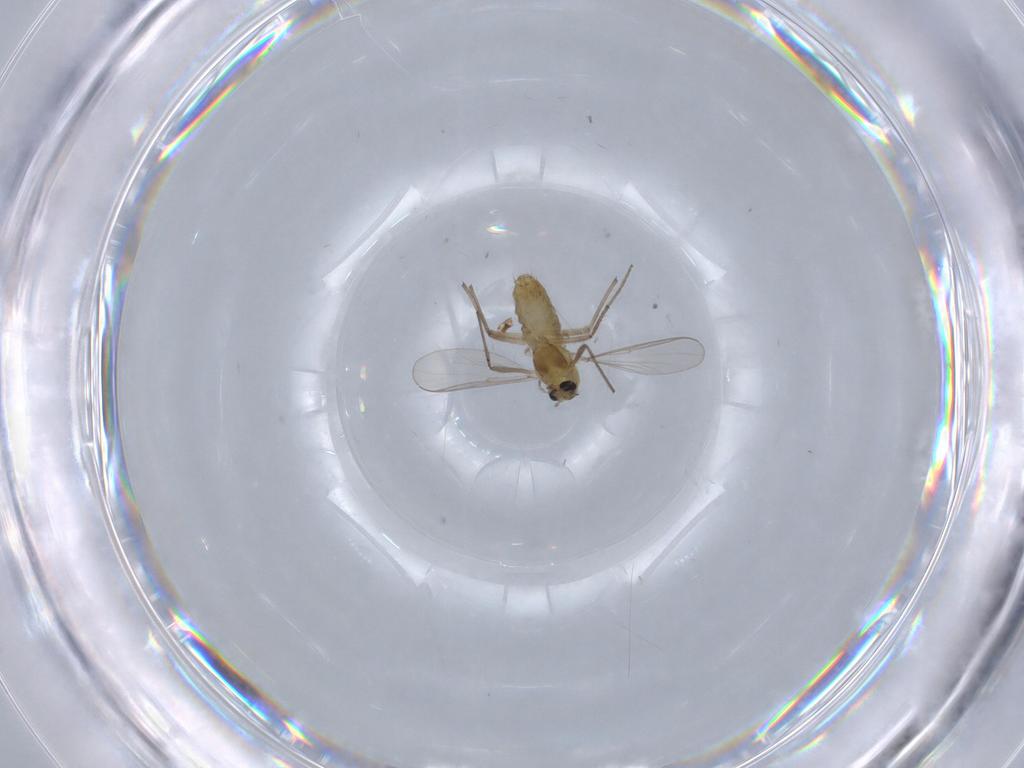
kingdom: Animalia
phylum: Arthropoda
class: Insecta
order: Diptera
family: Chironomidae
